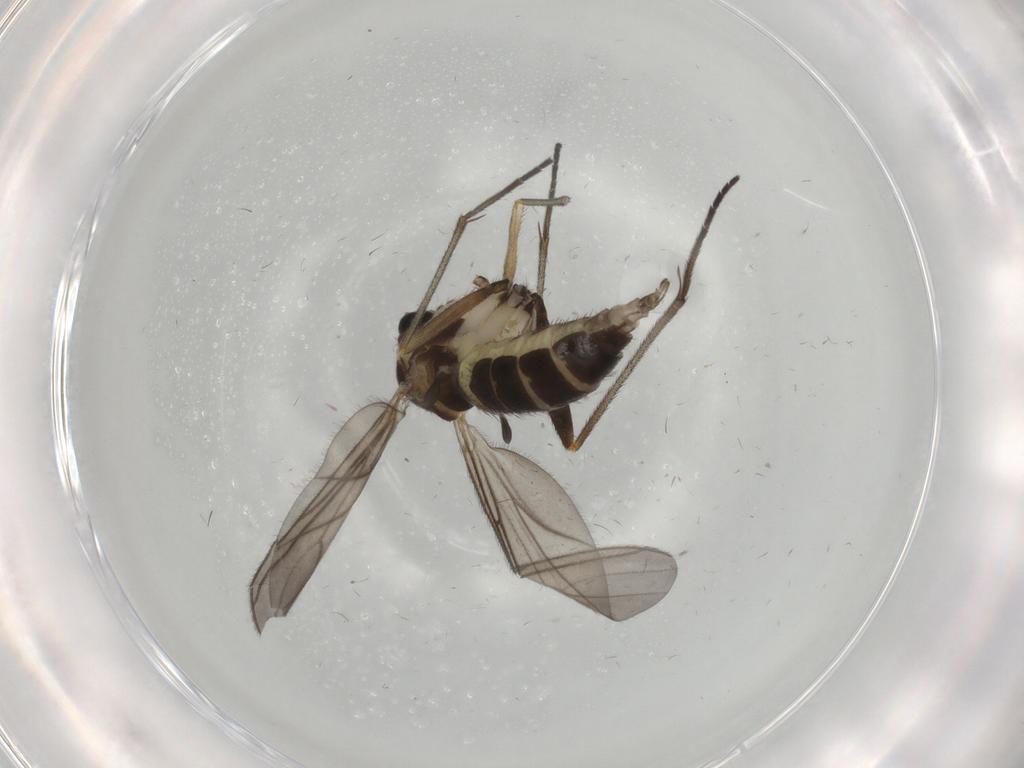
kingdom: Animalia
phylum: Arthropoda
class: Insecta
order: Diptera
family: Sciaridae
